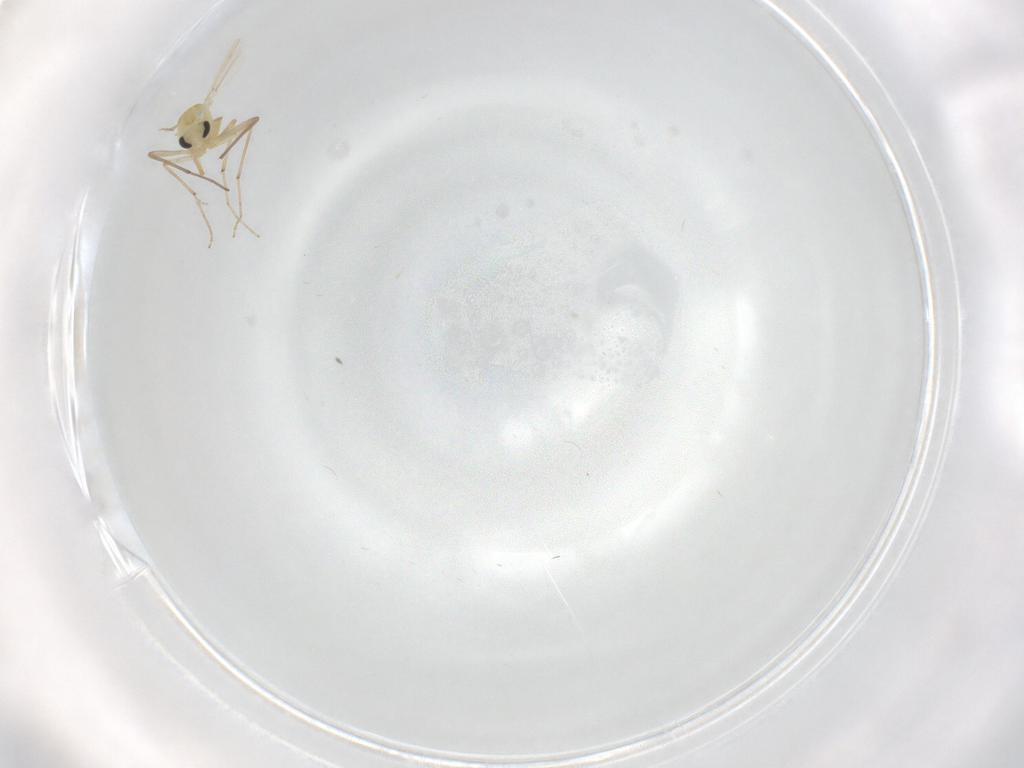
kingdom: Animalia
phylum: Arthropoda
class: Insecta
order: Diptera
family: Chironomidae
